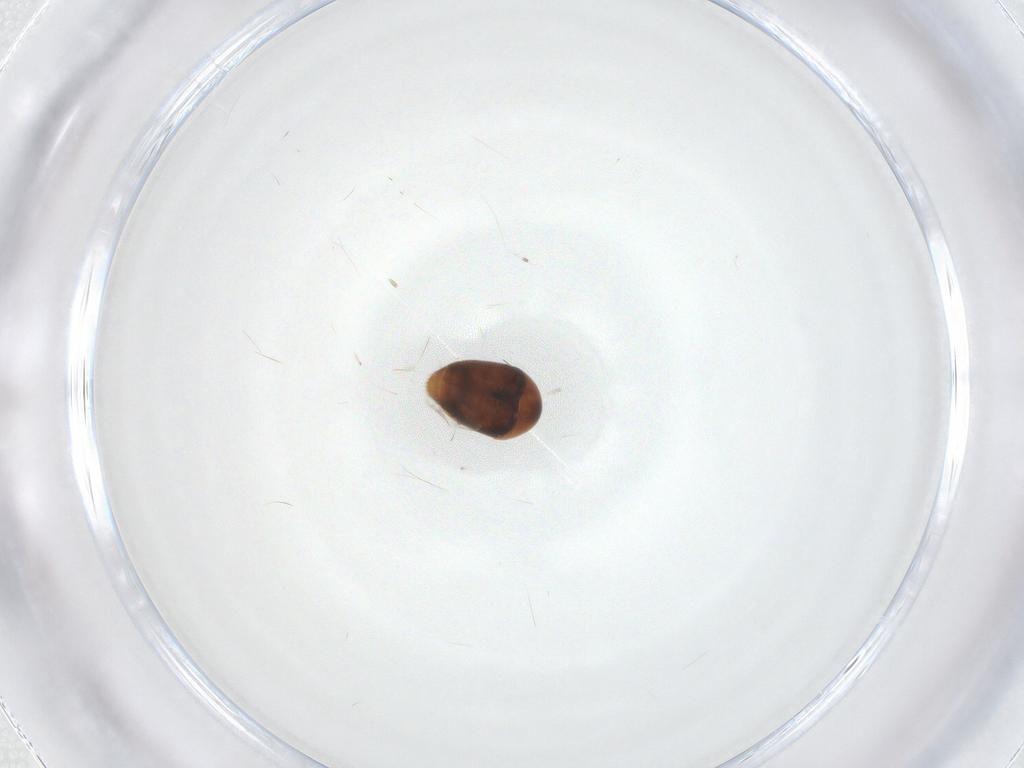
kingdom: Animalia
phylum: Arthropoda
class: Insecta
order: Coleoptera
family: Corylophidae
